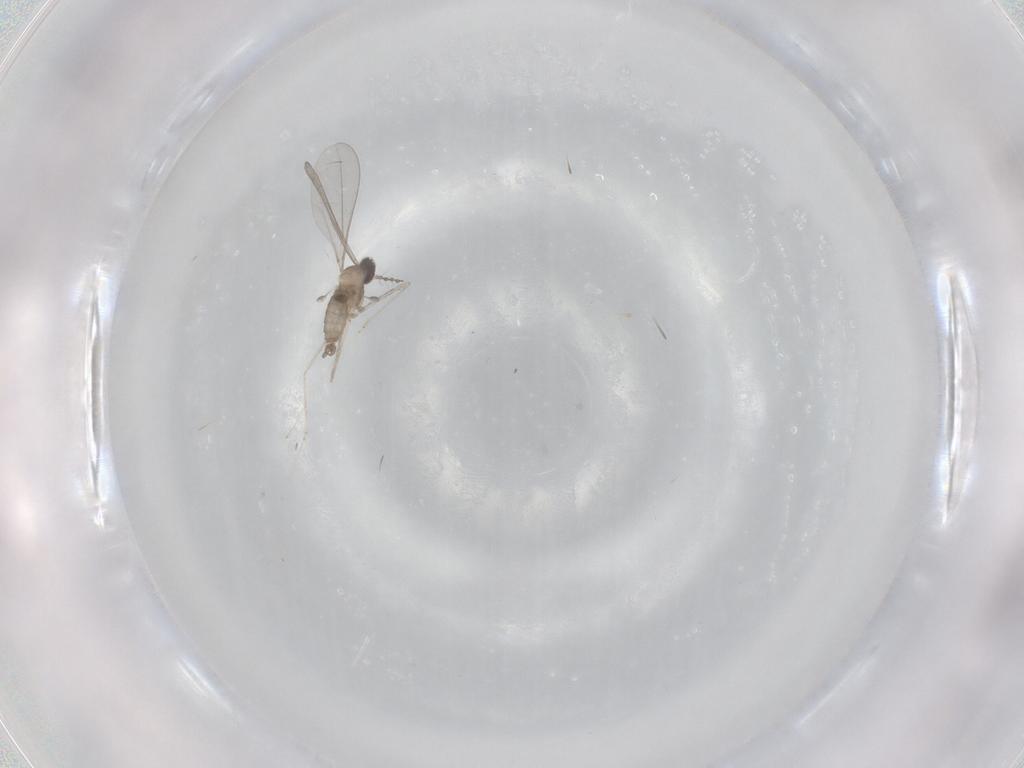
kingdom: Animalia
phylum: Arthropoda
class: Insecta
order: Diptera
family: Cecidomyiidae
